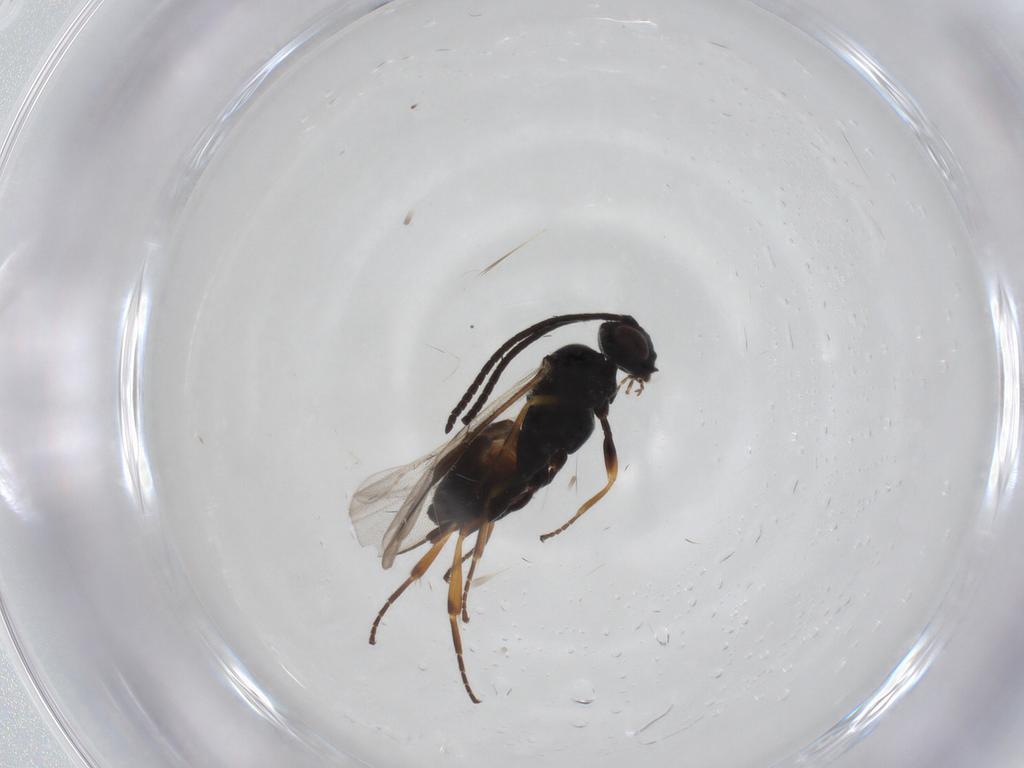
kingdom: Animalia
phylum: Arthropoda
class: Insecta
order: Hymenoptera
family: Braconidae
